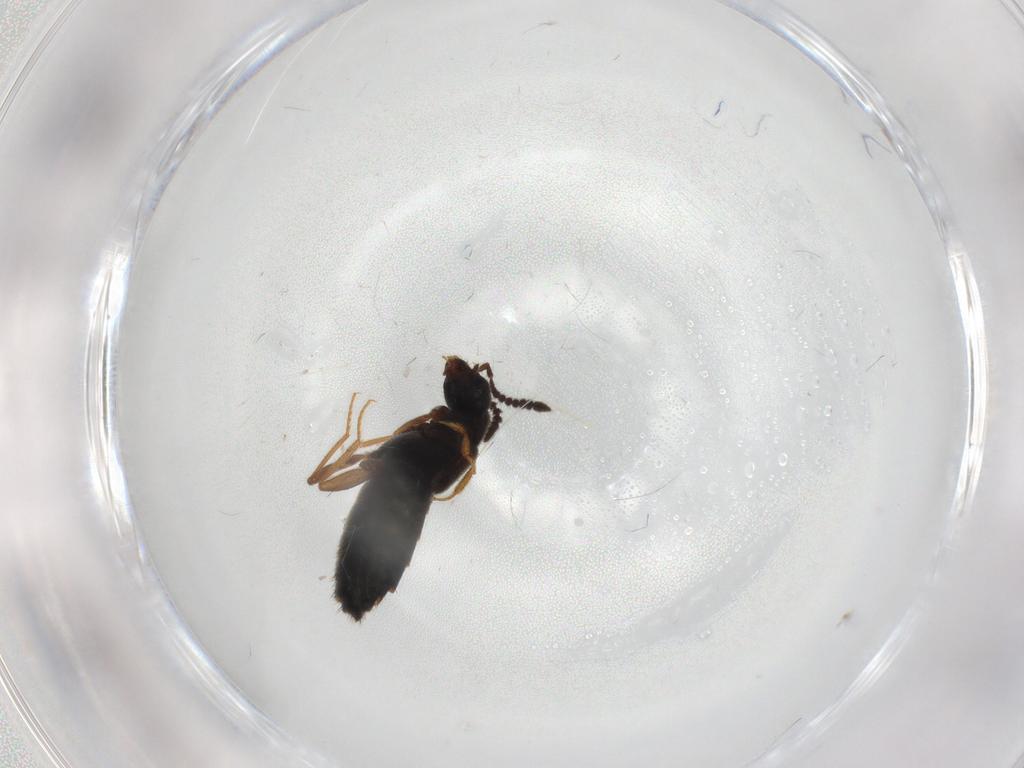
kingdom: Animalia
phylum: Arthropoda
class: Insecta
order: Coleoptera
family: Staphylinidae
